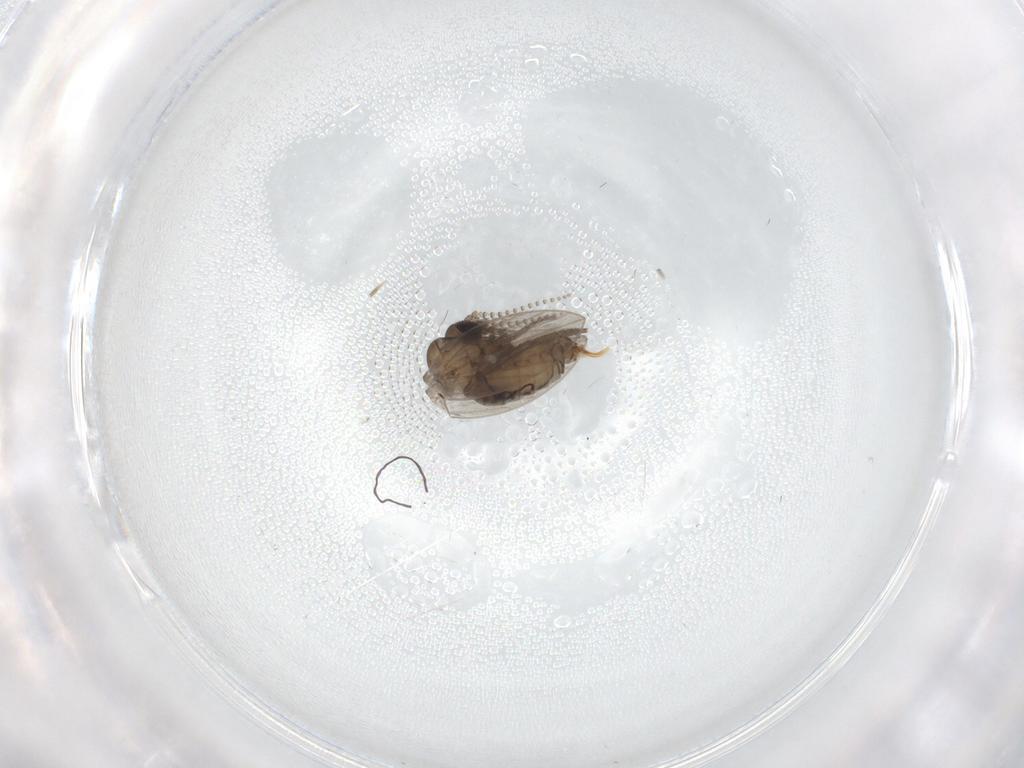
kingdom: Animalia
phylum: Arthropoda
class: Insecta
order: Diptera
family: Psychodidae
